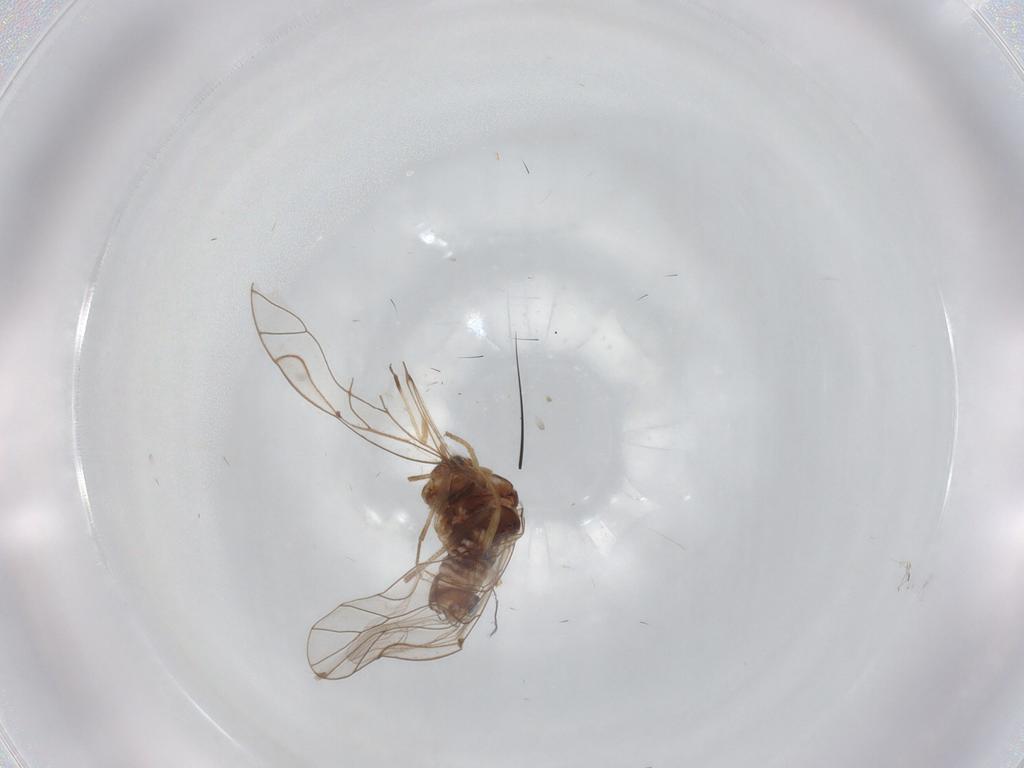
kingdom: Animalia
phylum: Arthropoda
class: Insecta
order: Psocodea
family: Lachesillidae
